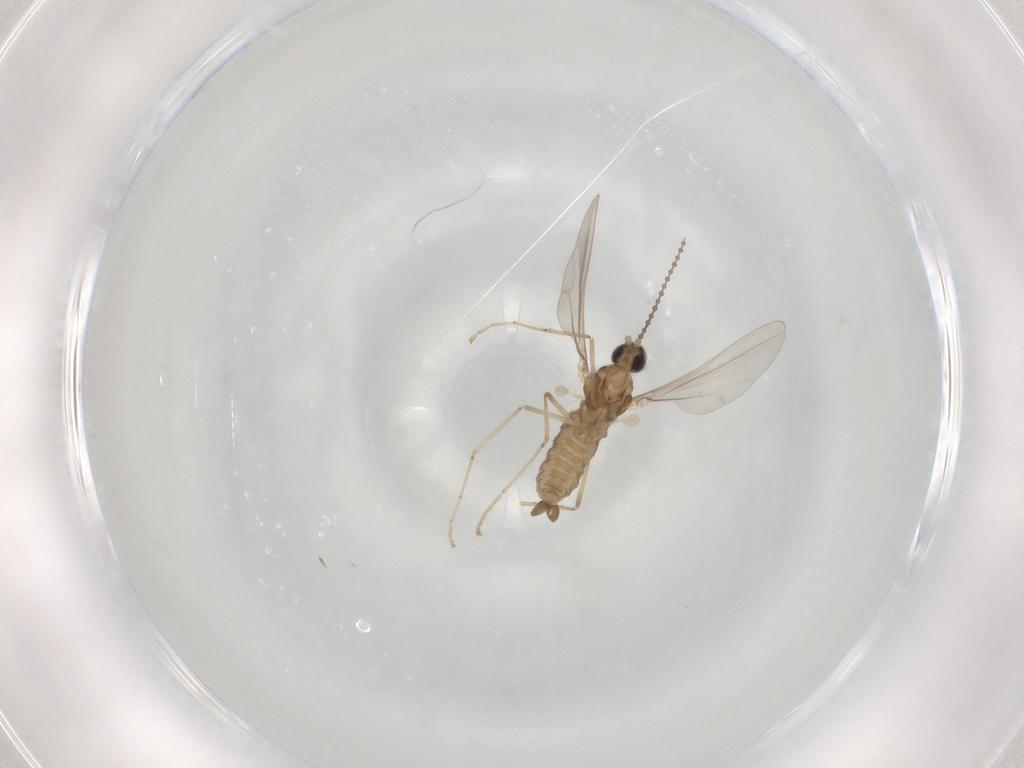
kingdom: Animalia
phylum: Arthropoda
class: Insecta
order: Diptera
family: Cecidomyiidae
